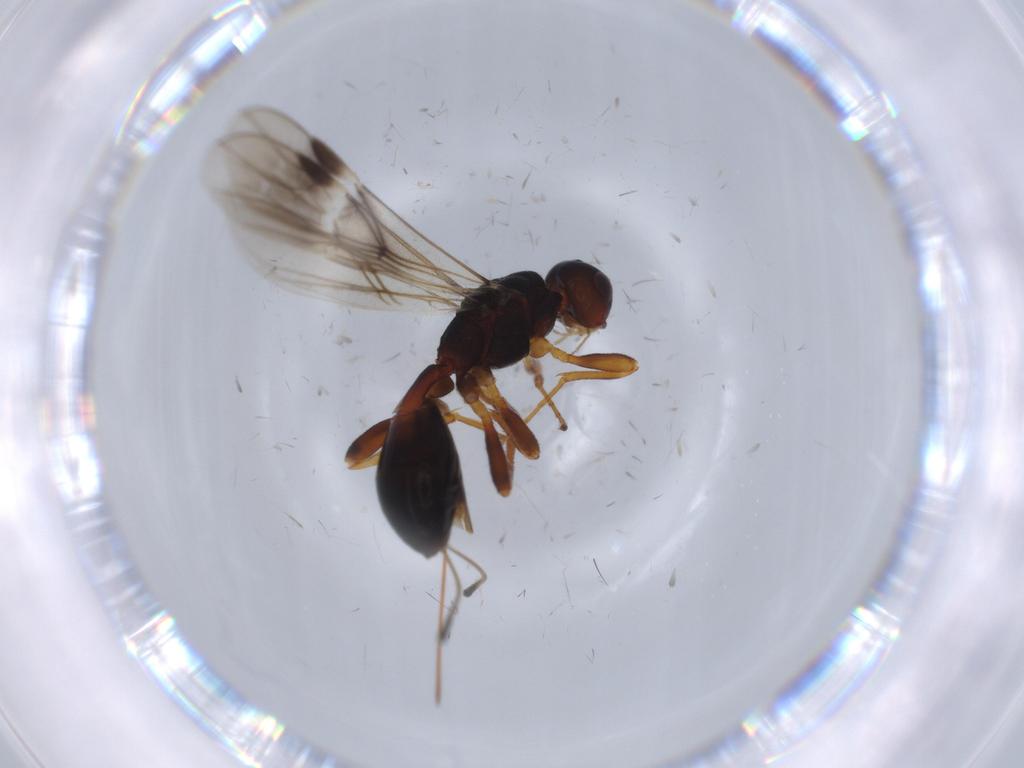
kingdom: Animalia
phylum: Arthropoda
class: Insecta
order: Hymenoptera
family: Braconidae
